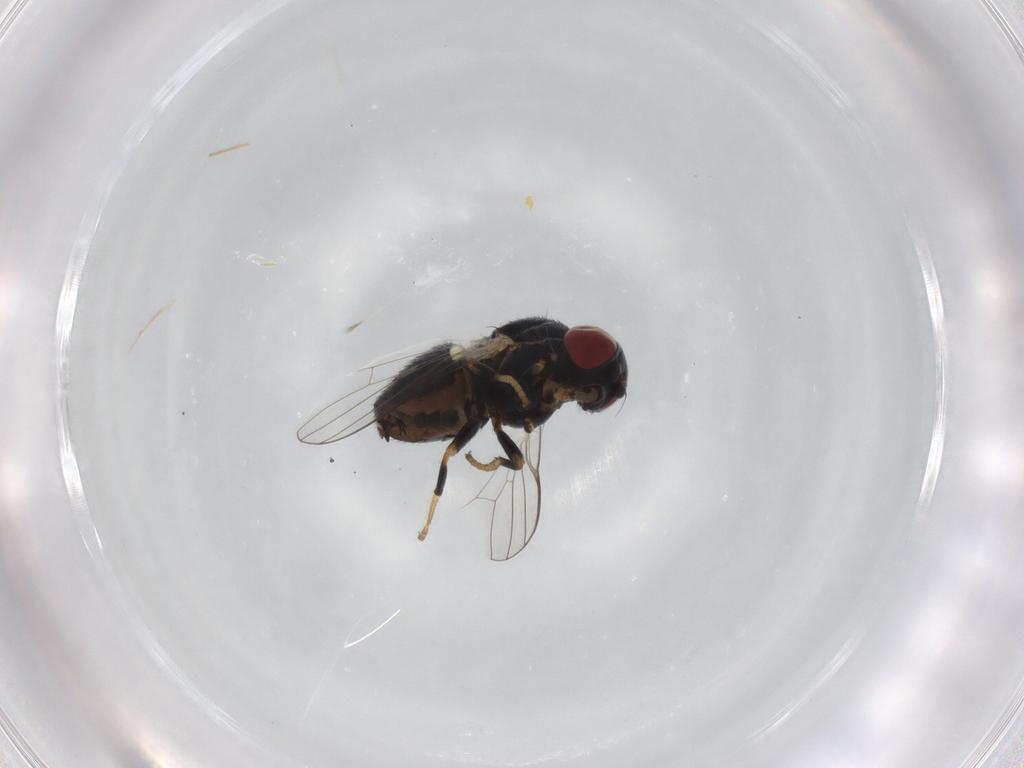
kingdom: Animalia
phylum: Arthropoda
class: Insecta
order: Diptera
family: Chamaemyiidae
